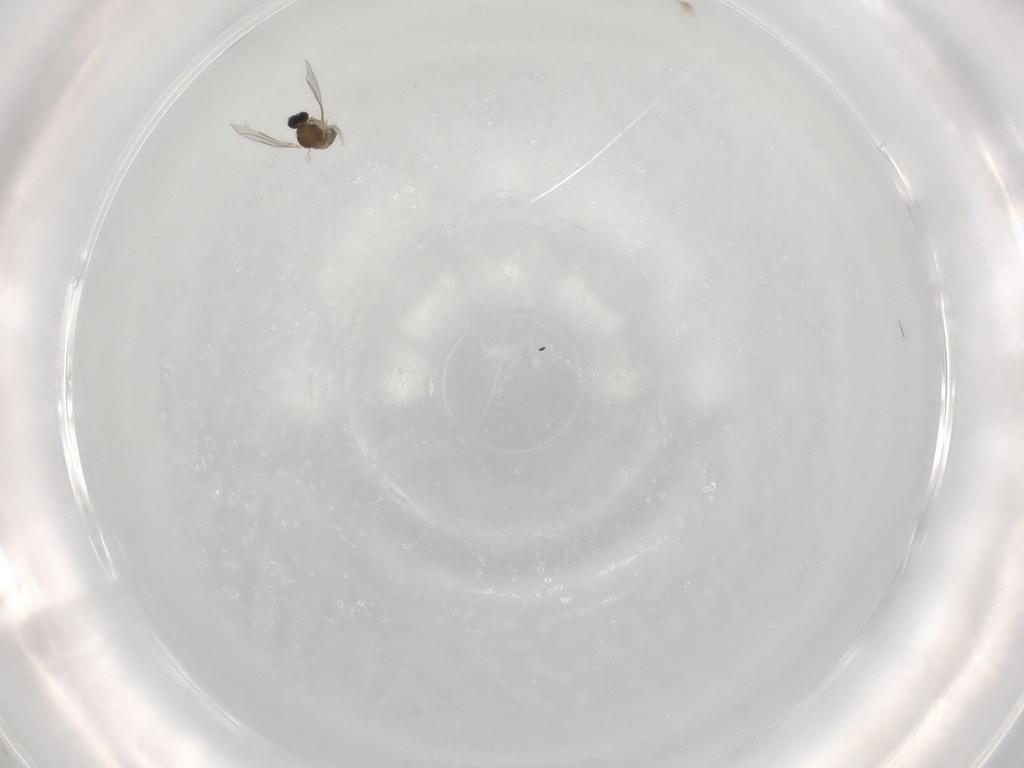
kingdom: Animalia
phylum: Arthropoda
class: Insecta
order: Diptera
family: Cecidomyiidae
